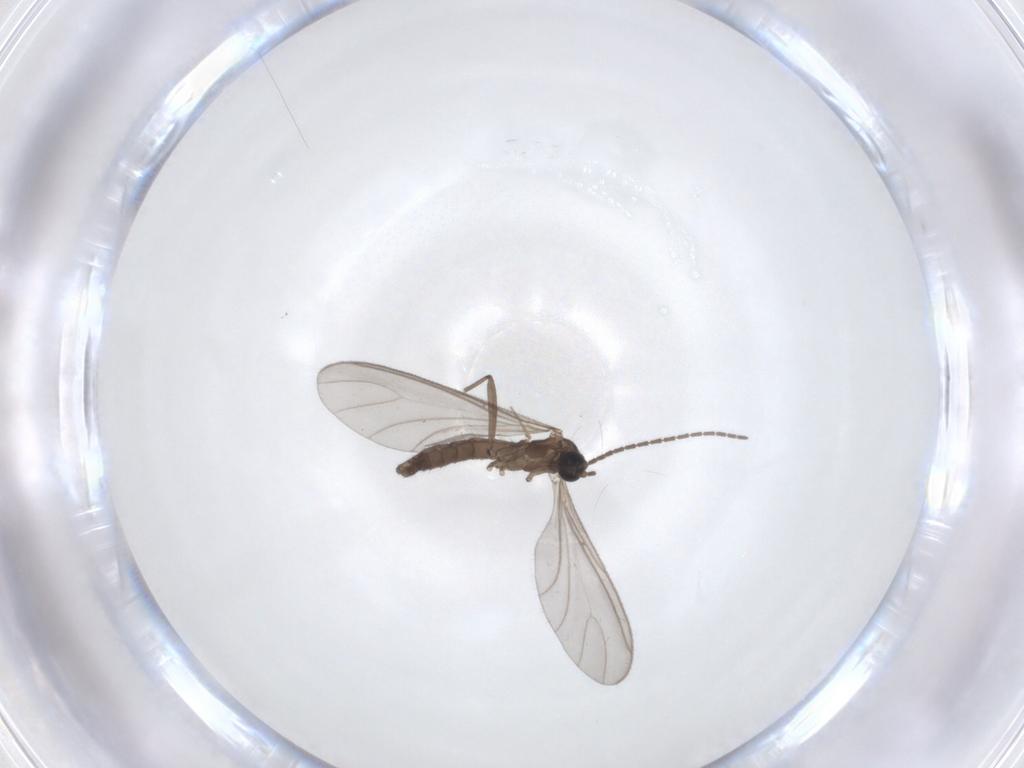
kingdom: Animalia
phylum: Arthropoda
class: Insecta
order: Diptera
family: Sciaridae
